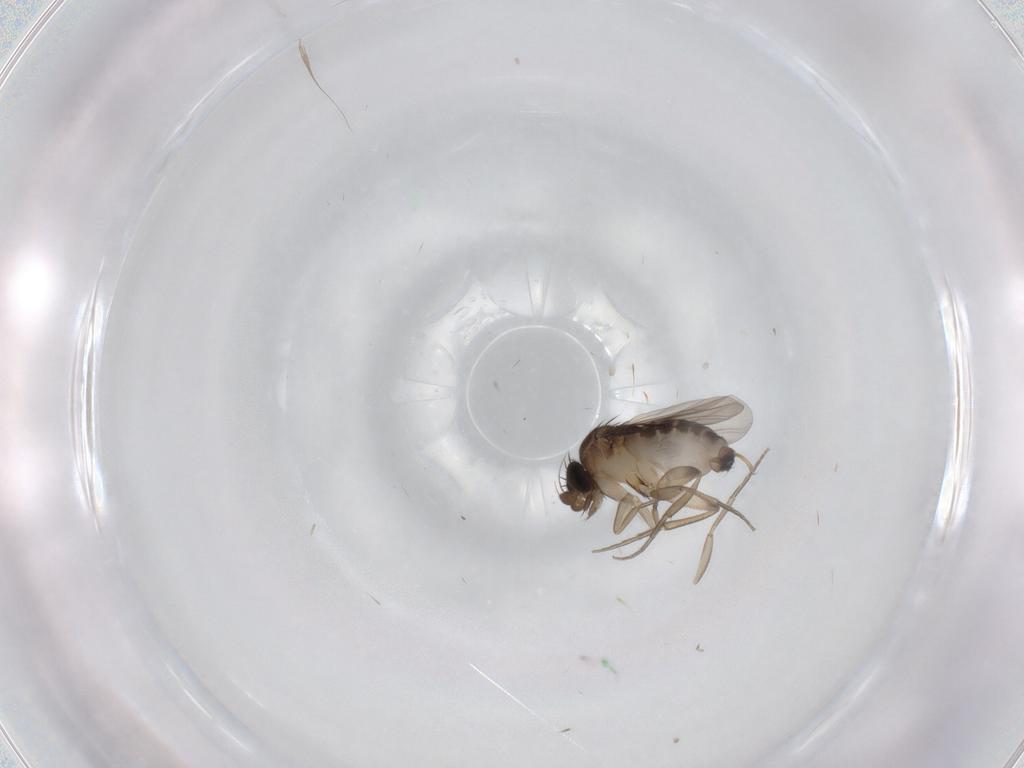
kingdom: Animalia
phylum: Arthropoda
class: Insecta
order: Diptera
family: Phoridae
